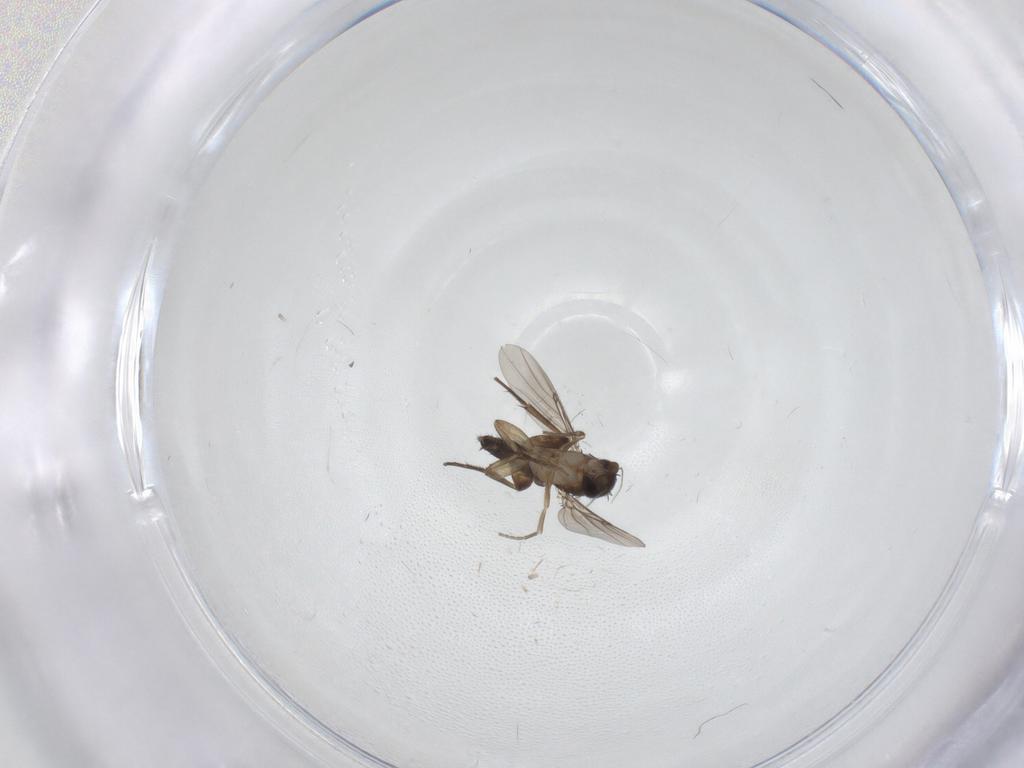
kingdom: Animalia
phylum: Arthropoda
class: Insecta
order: Diptera
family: Phoridae
